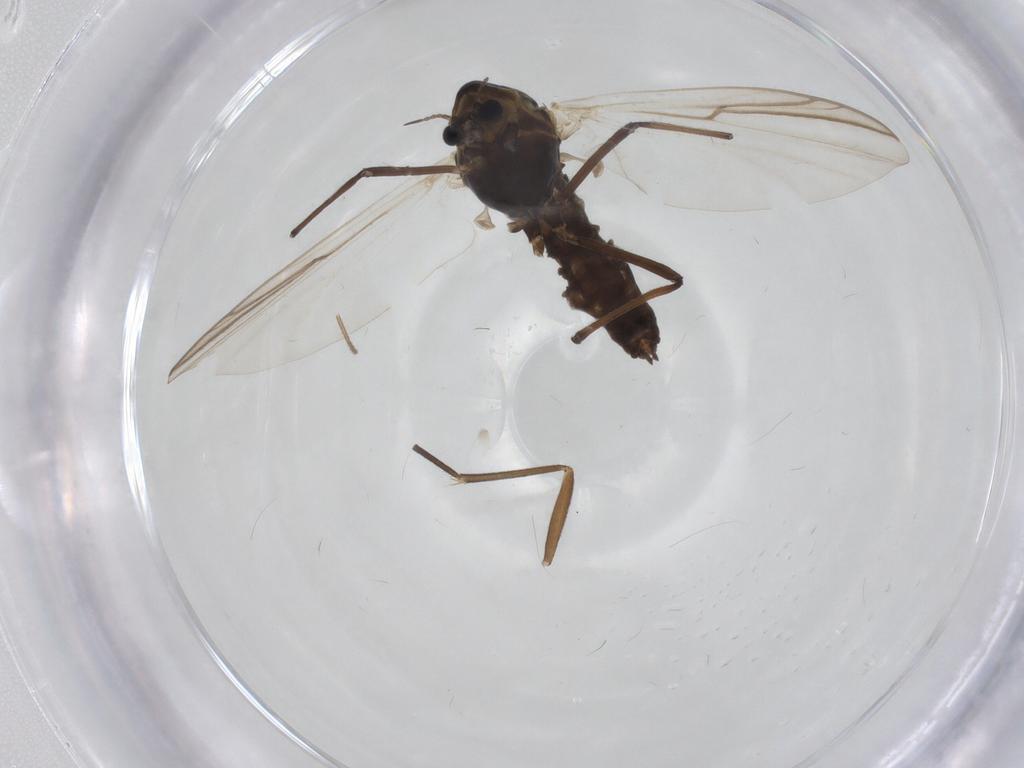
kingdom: Animalia
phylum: Arthropoda
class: Insecta
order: Diptera
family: Chironomidae
